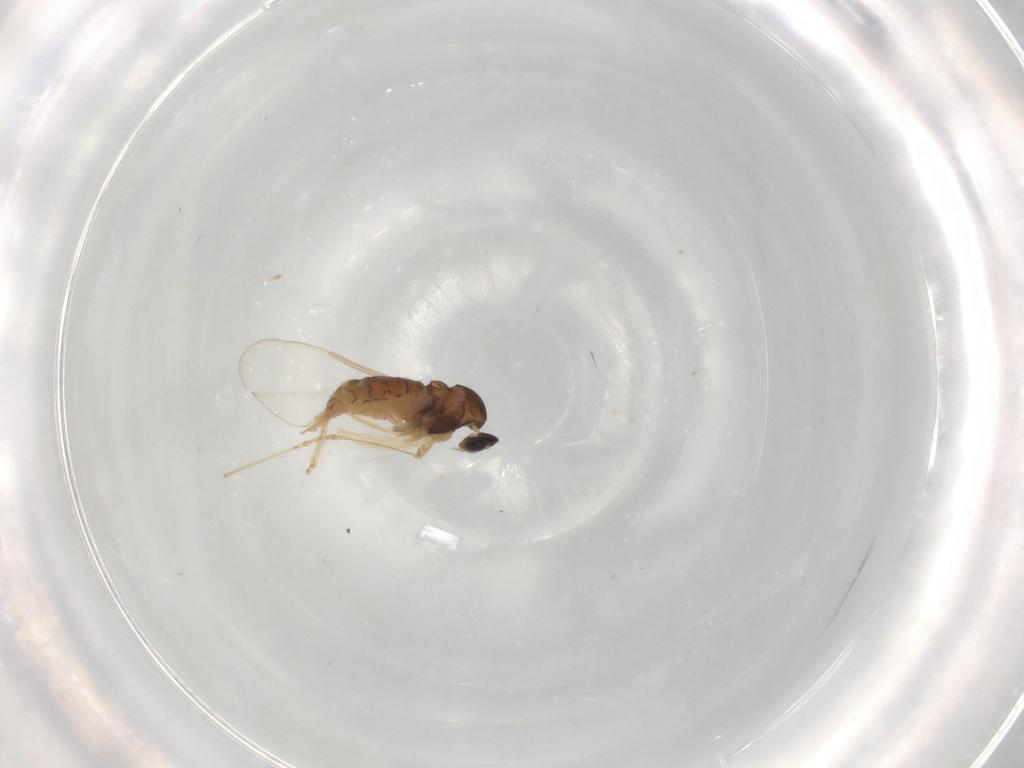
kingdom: Animalia
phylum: Arthropoda
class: Insecta
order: Diptera
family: Cecidomyiidae
